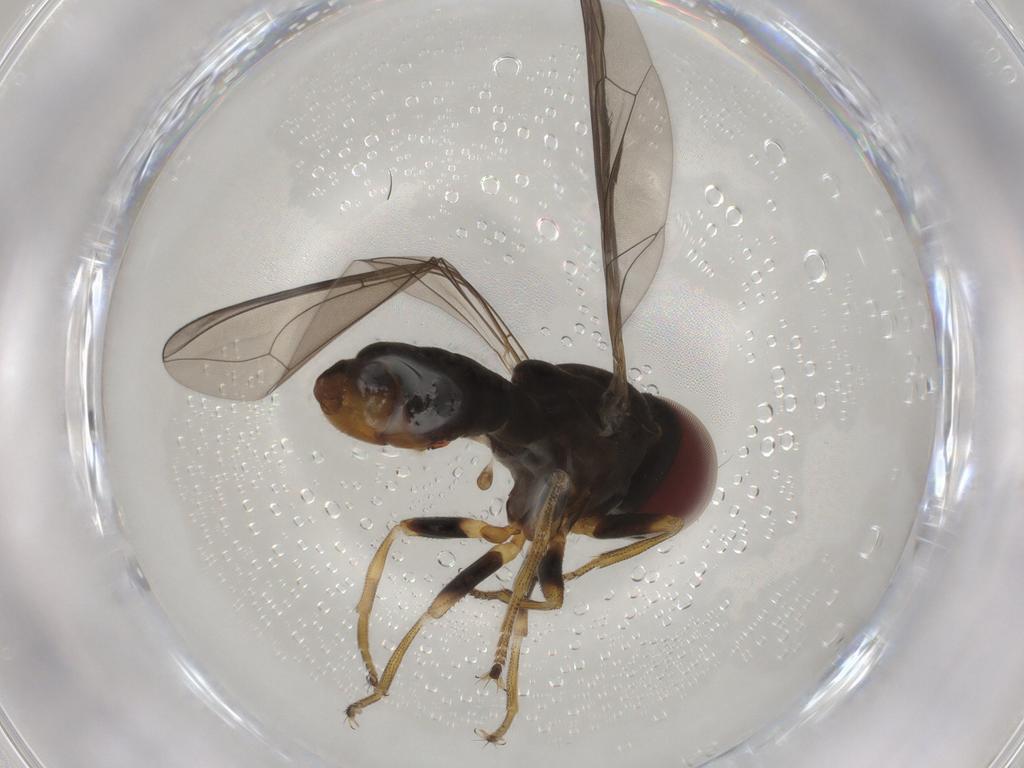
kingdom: Animalia
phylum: Arthropoda
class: Insecta
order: Diptera
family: Pipunculidae
